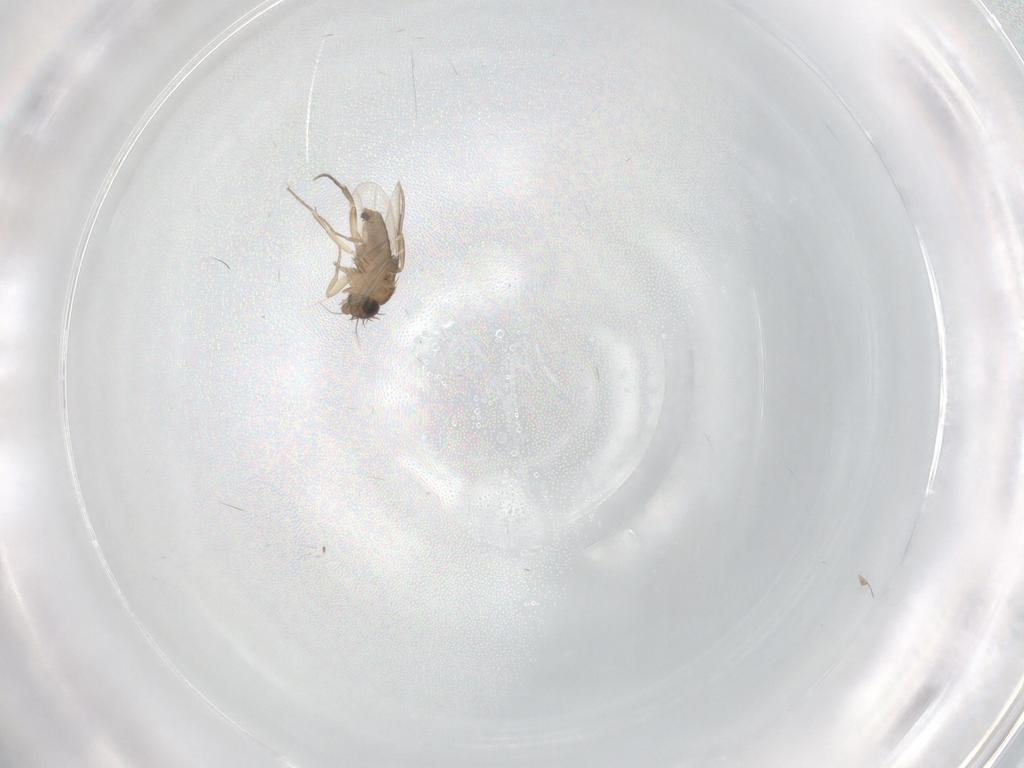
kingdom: Animalia
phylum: Arthropoda
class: Insecta
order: Diptera
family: Phoridae
